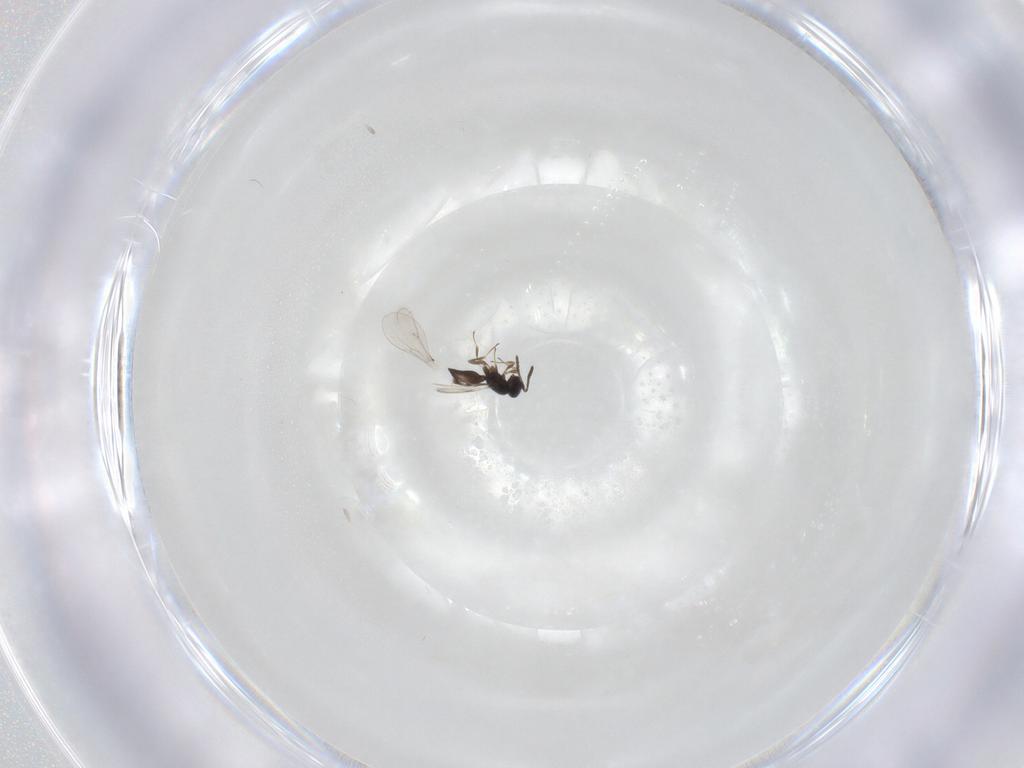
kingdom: Animalia
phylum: Arthropoda
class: Insecta
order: Hymenoptera
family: Scelionidae
